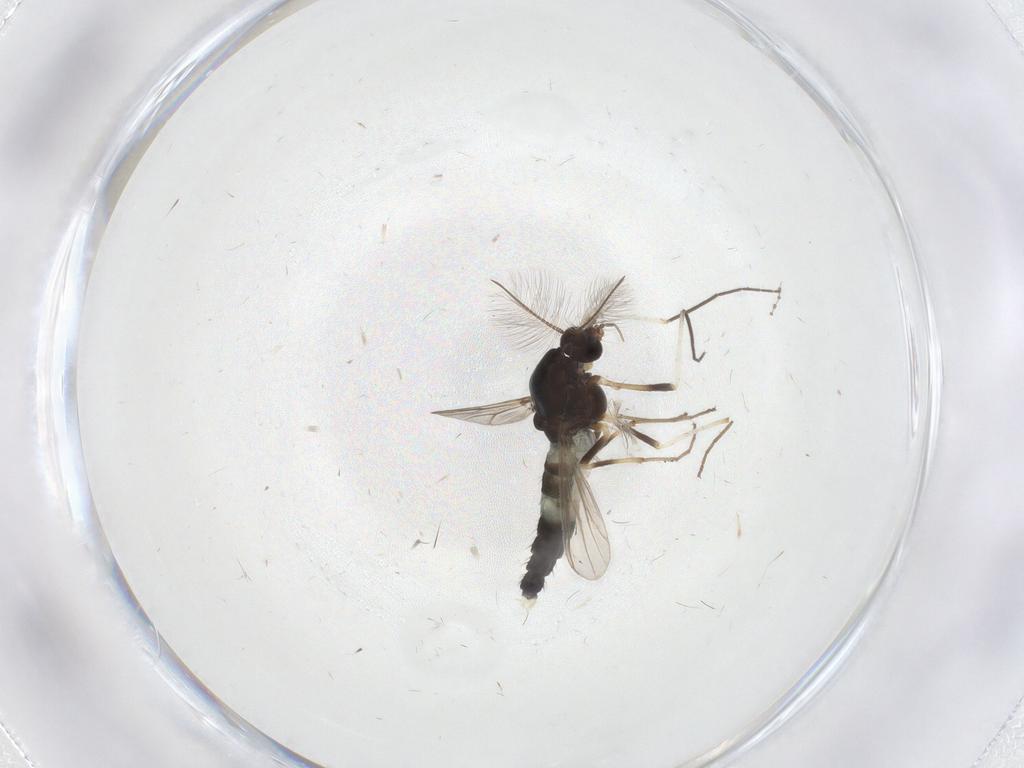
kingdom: Animalia
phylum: Arthropoda
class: Insecta
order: Diptera
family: Chironomidae
